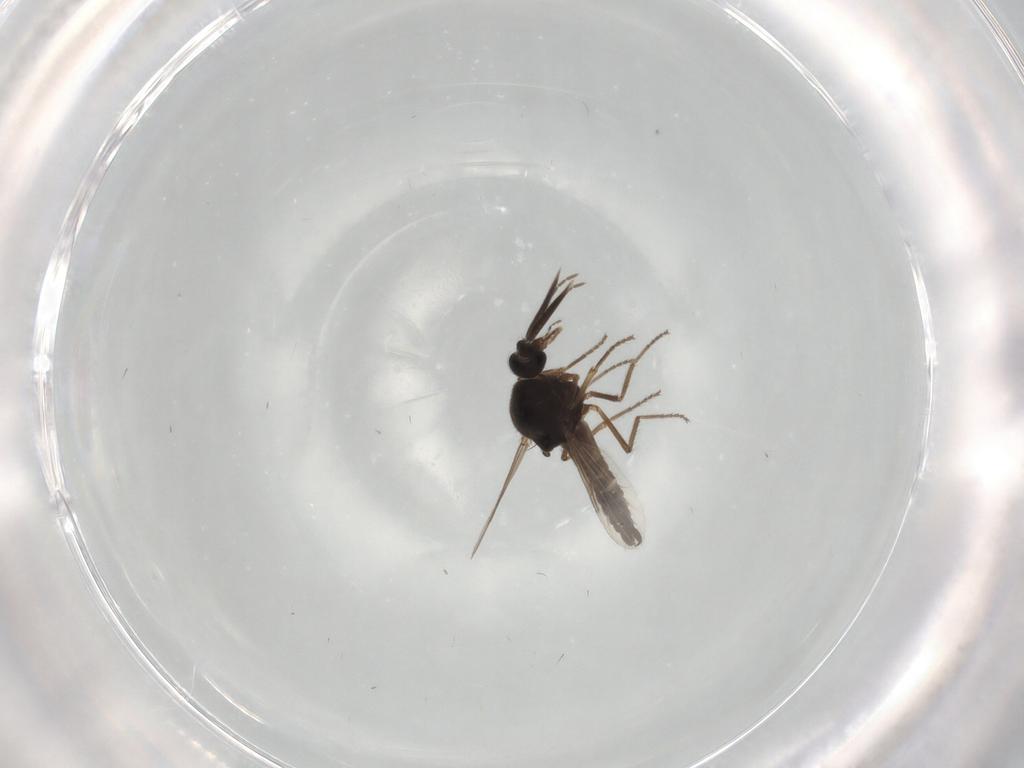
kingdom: Animalia
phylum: Arthropoda
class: Insecta
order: Diptera
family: Ceratopogonidae
